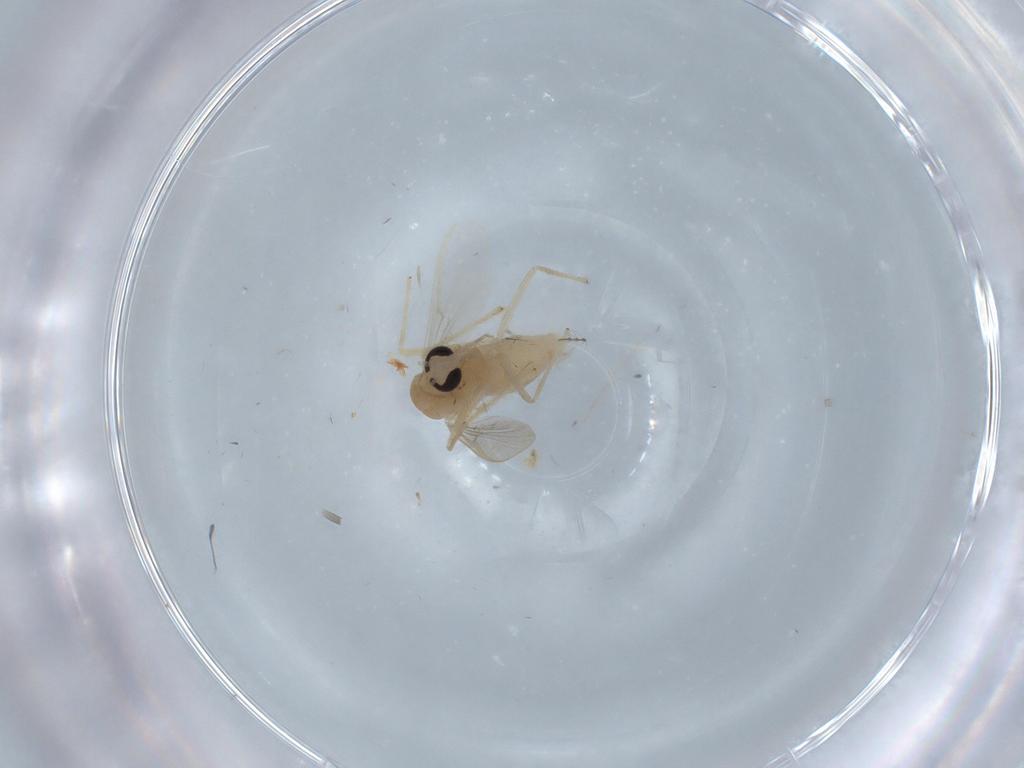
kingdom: Animalia
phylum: Arthropoda
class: Insecta
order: Diptera
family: Chironomidae
